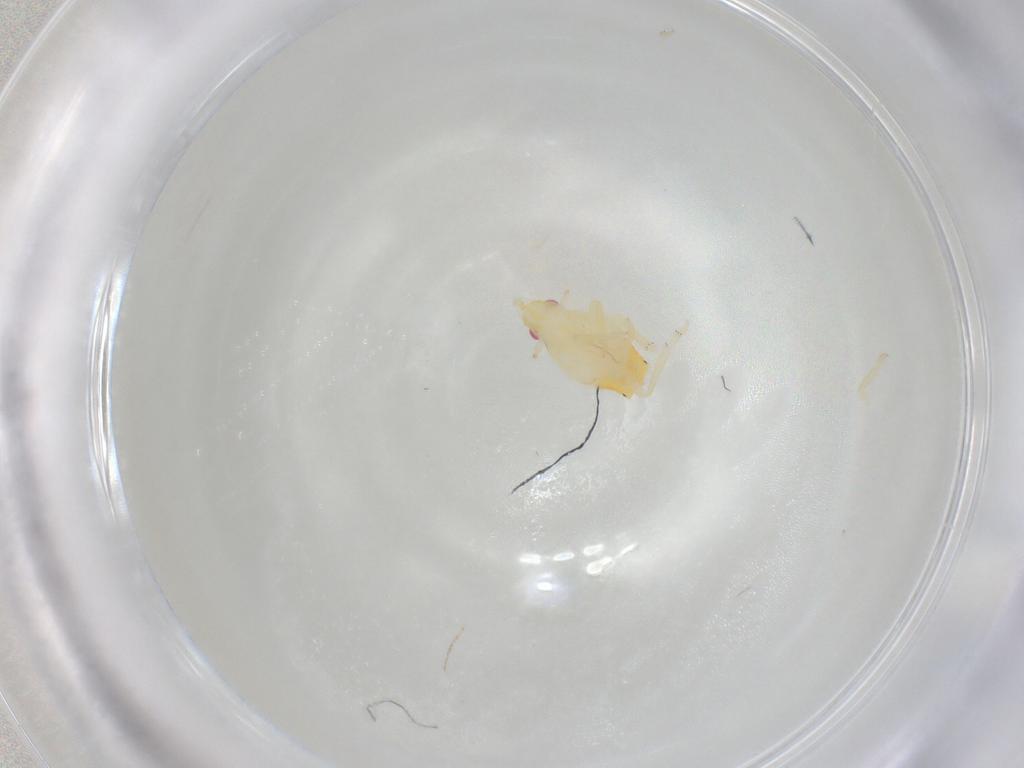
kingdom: Animalia
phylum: Arthropoda
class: Insecta
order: Hemiptera
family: Fulgoroidea_incertae_sedis
